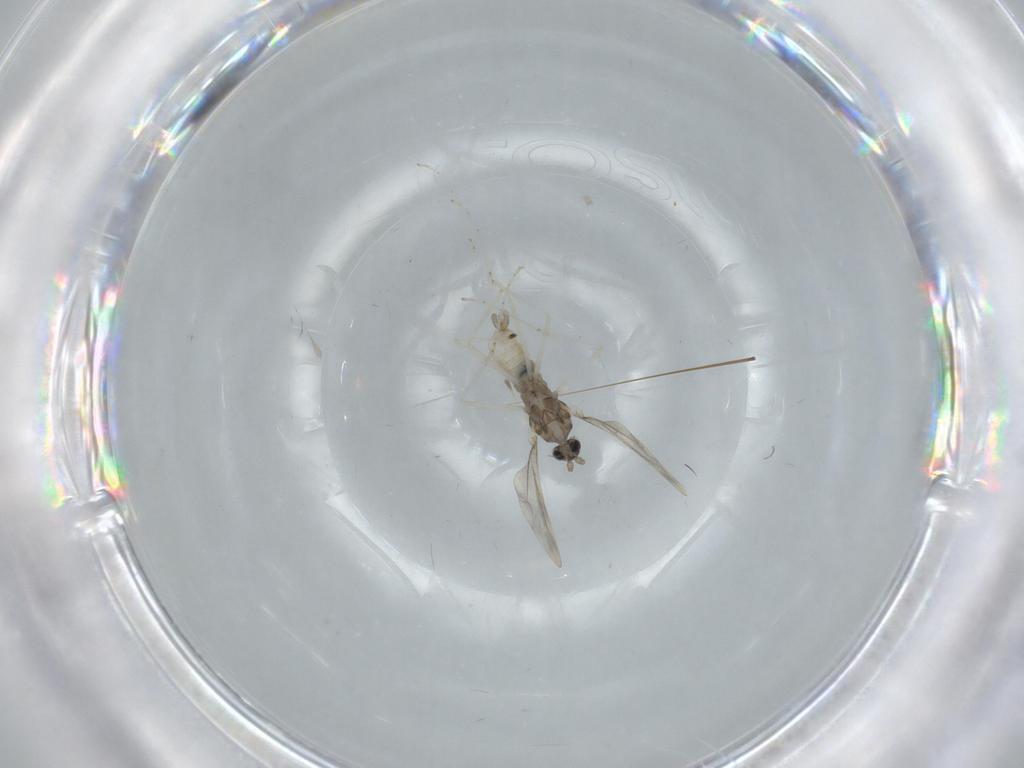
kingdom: Animalia
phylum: Arthropoda
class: Insecta
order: Diptera
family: Cecidomyiidae
